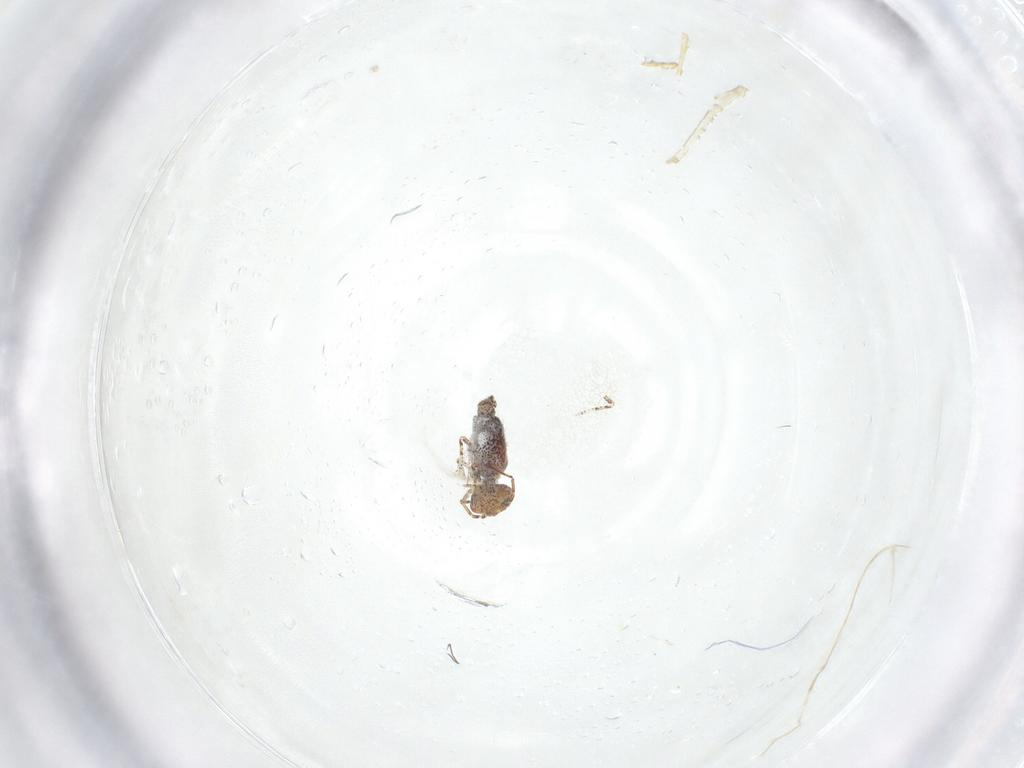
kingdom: Animalia
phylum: Arthropoda
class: Collembola
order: Symphypleona
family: Bourletiellidae
